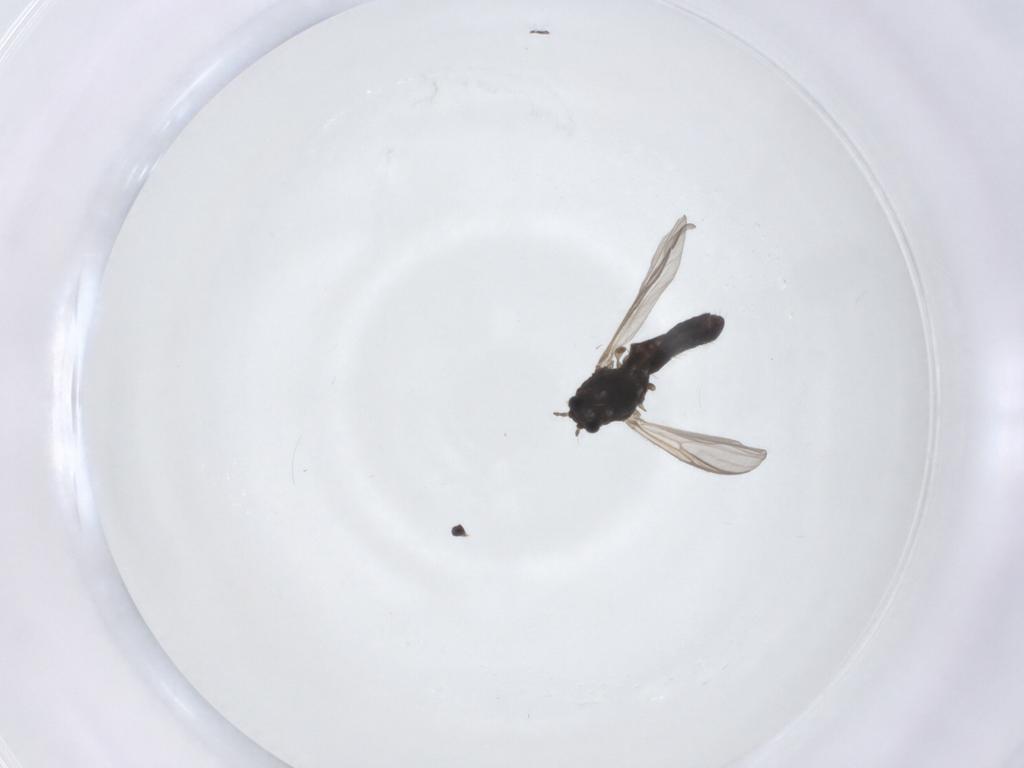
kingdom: Animalia
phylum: Arthropoda
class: Insecta
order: Diptera
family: Chironomidae
